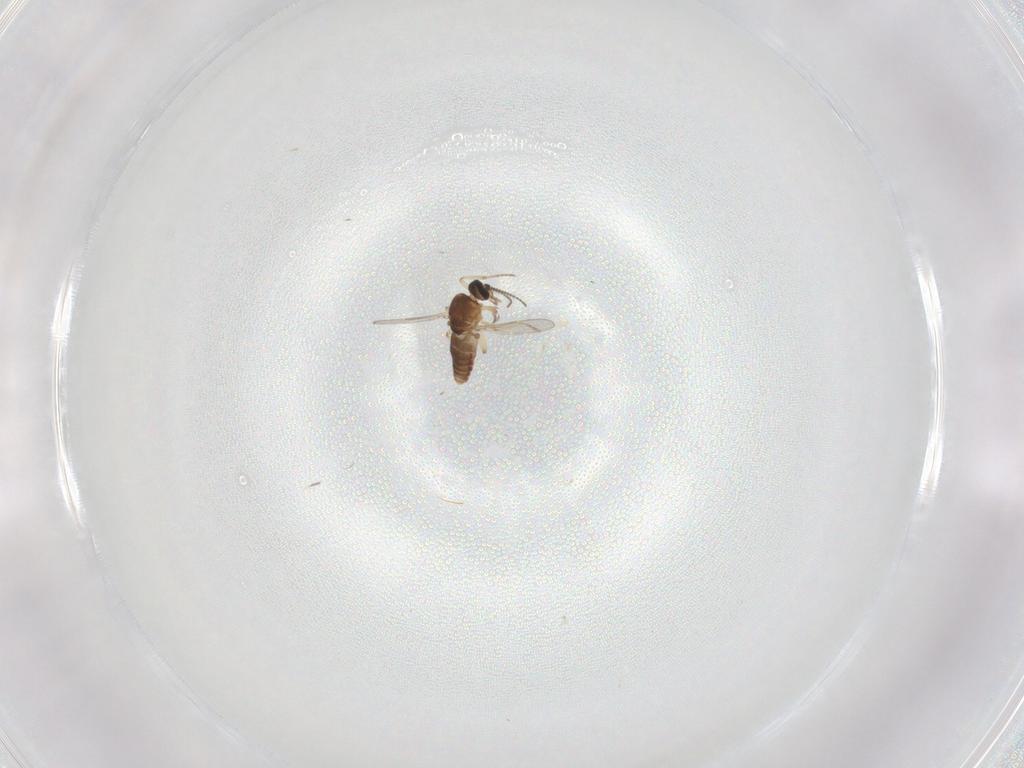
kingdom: Animalia
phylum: Arthropoda
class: Insecta
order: Diptera
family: Ceratopogonidae
